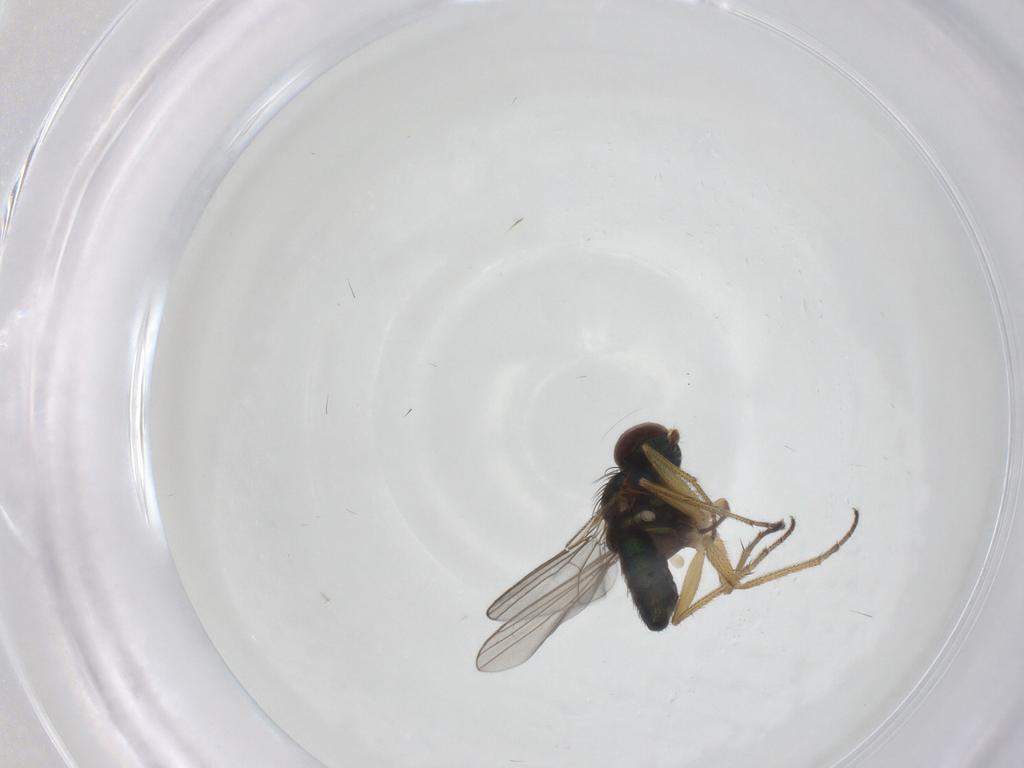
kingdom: Animalia
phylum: Arthropoda
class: Insecta
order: Diptera
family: Dolichopodidae
